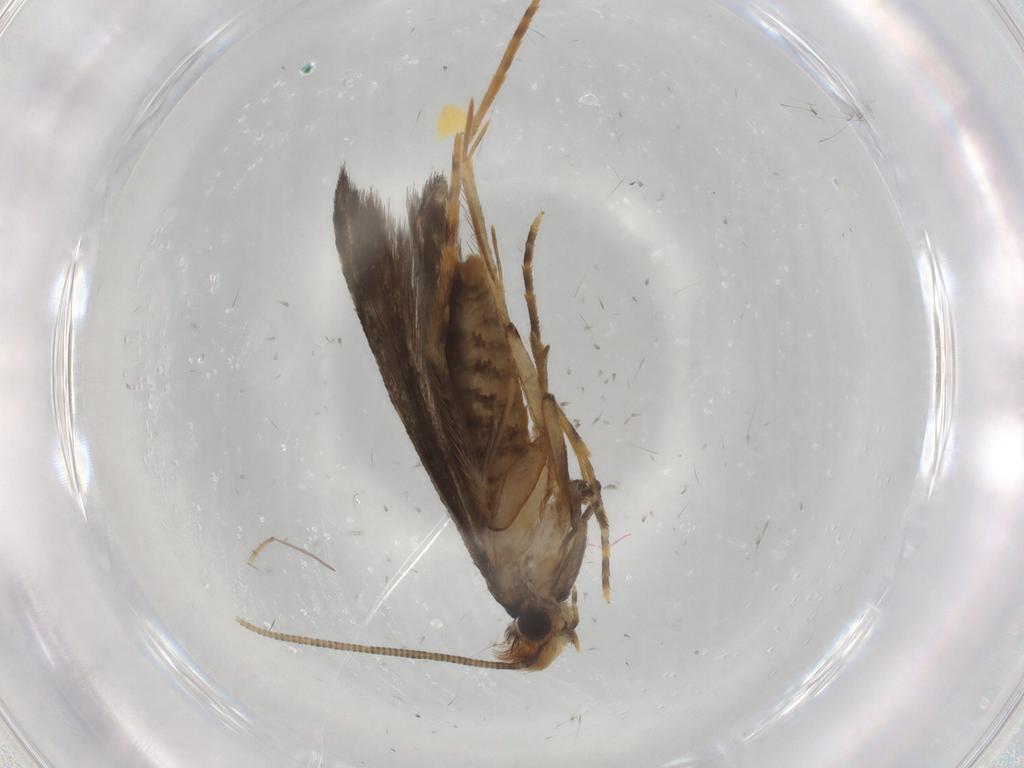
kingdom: Animalia
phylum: Arthropoda
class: Insecta
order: Lepidoptera
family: Tineidae
